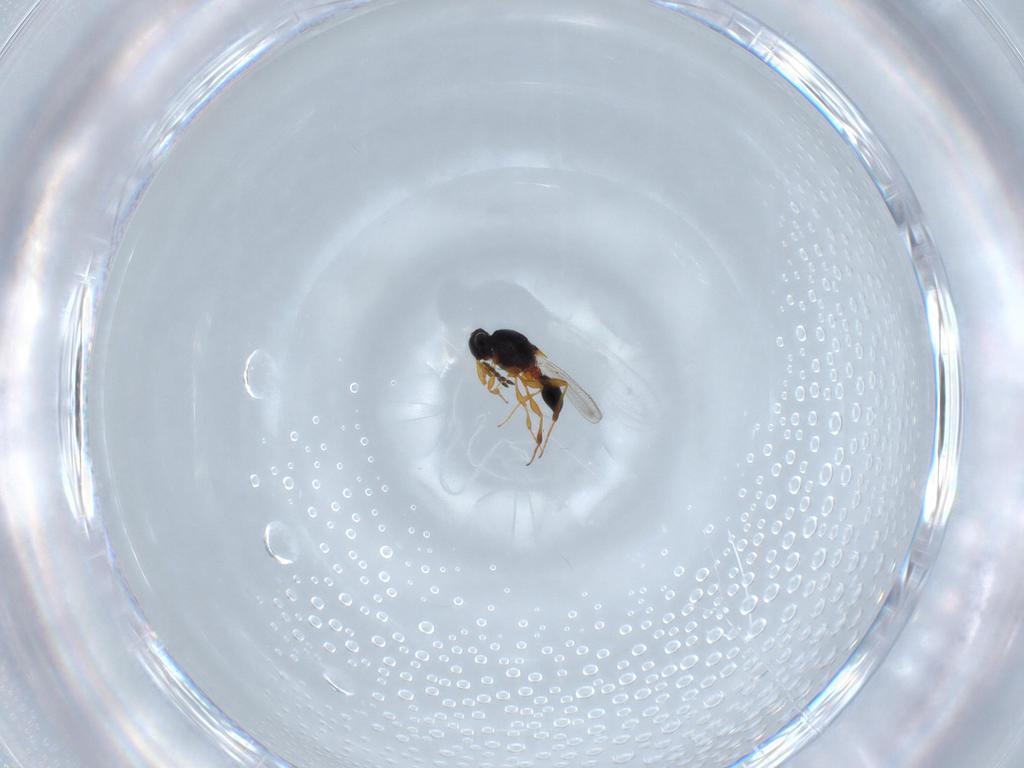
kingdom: Animalia
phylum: Arthropoda
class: Insecta
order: Hymenoptera
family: Platygastridae
